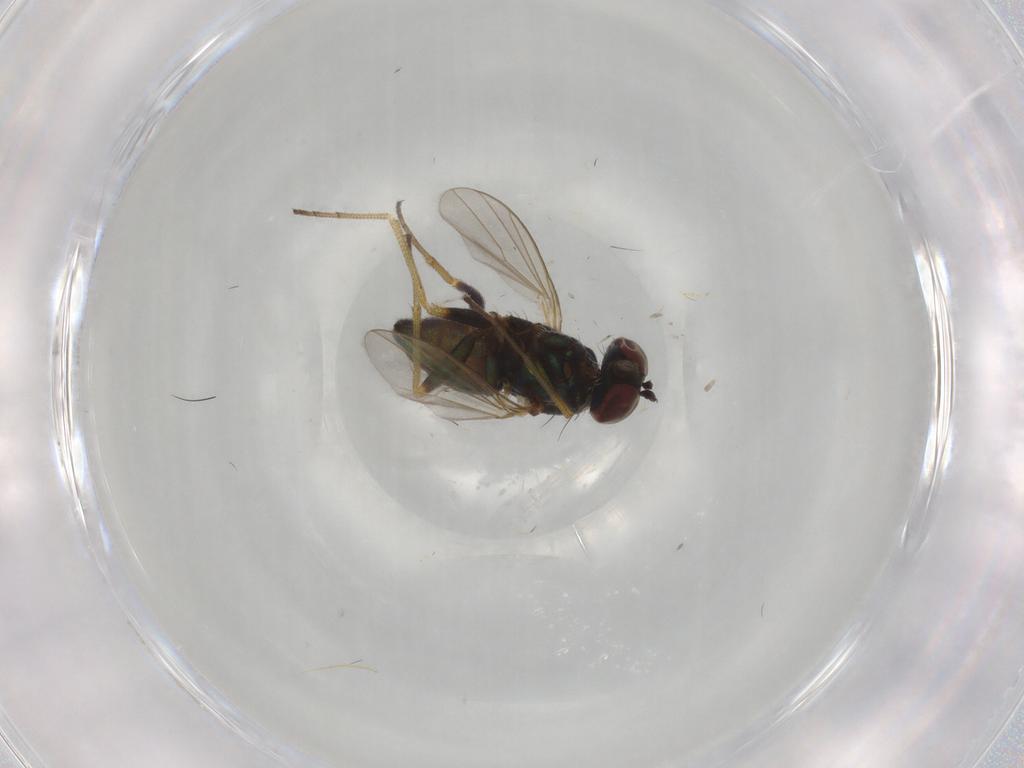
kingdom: Animalia
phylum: Arthropoda
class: Insecta
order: Diptera
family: Dolichopodidae
